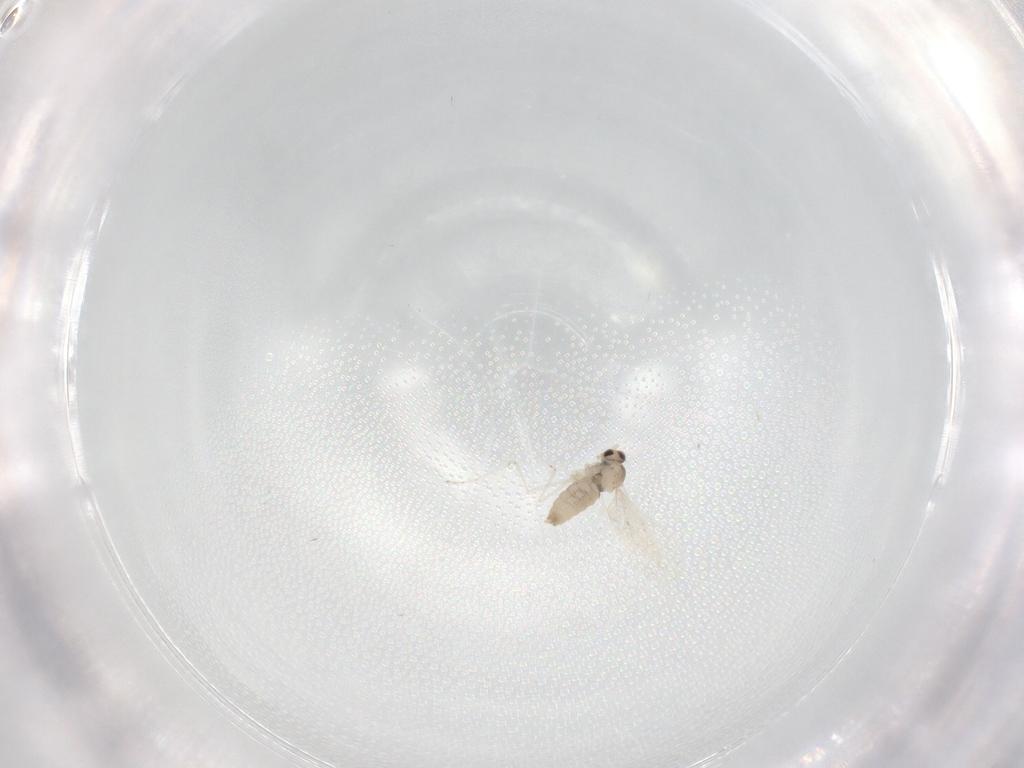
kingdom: Animalia
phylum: Arthropoda
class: Insecta
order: Diptera
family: Cecidomyiidae
